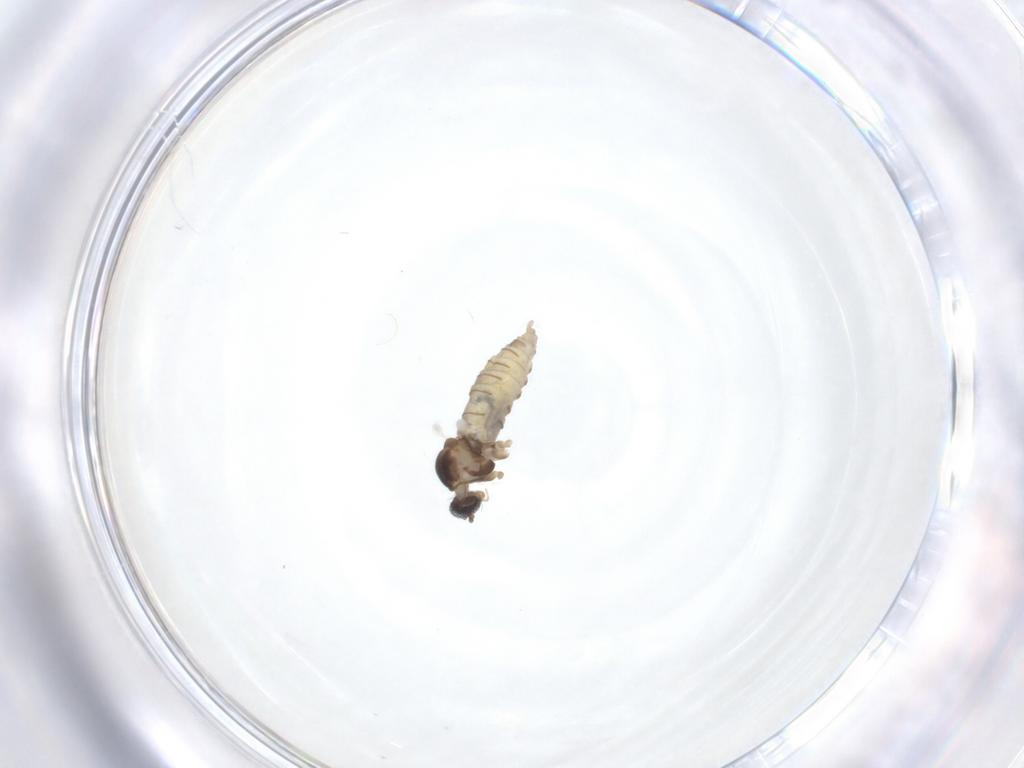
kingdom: Animalia
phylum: Arthropoda
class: Insecta
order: Diptera
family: Cecidomyiidae
